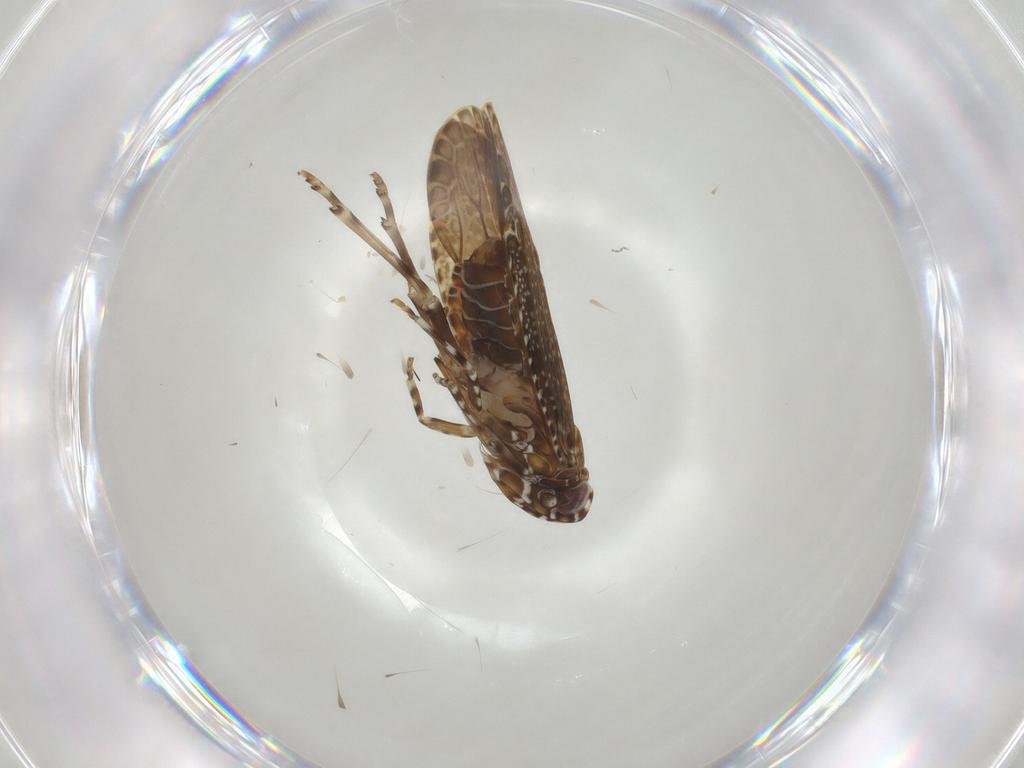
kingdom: Animalia
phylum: Arthropoda
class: Insecta
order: Hemiptera
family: Achilidae
